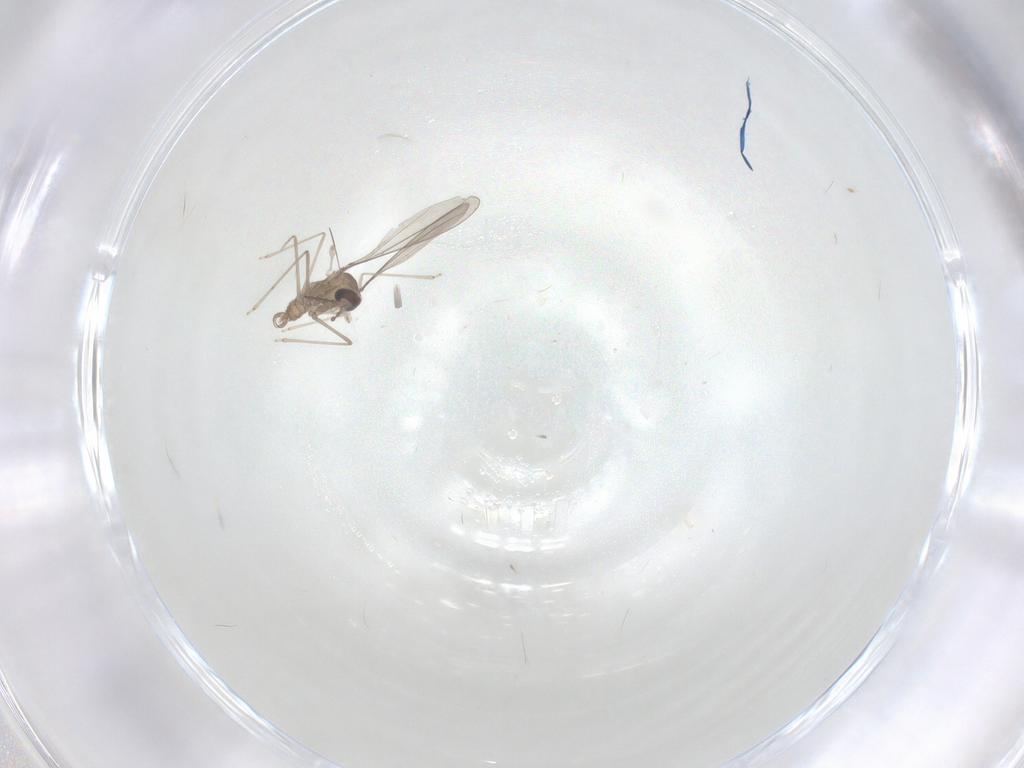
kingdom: Animalia
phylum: Arthropoda
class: Insecta
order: Diptera
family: Cecidomyiidae
